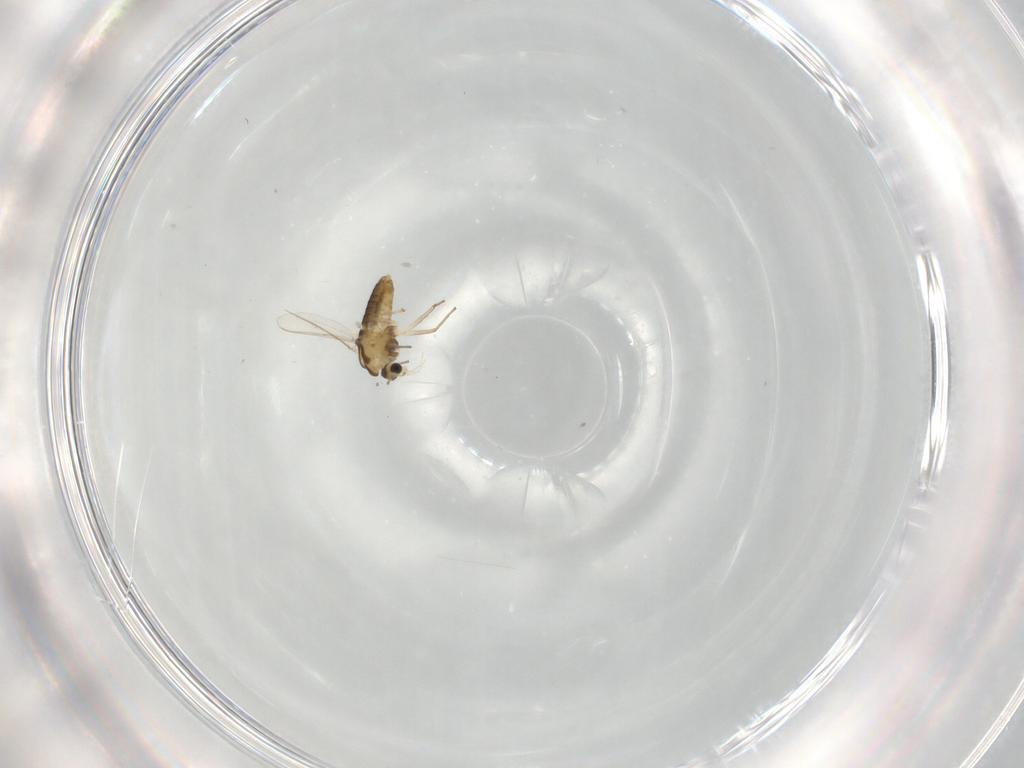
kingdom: Animalia
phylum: Arthropoda
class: Insecta
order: Diptera
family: Chironomidae
